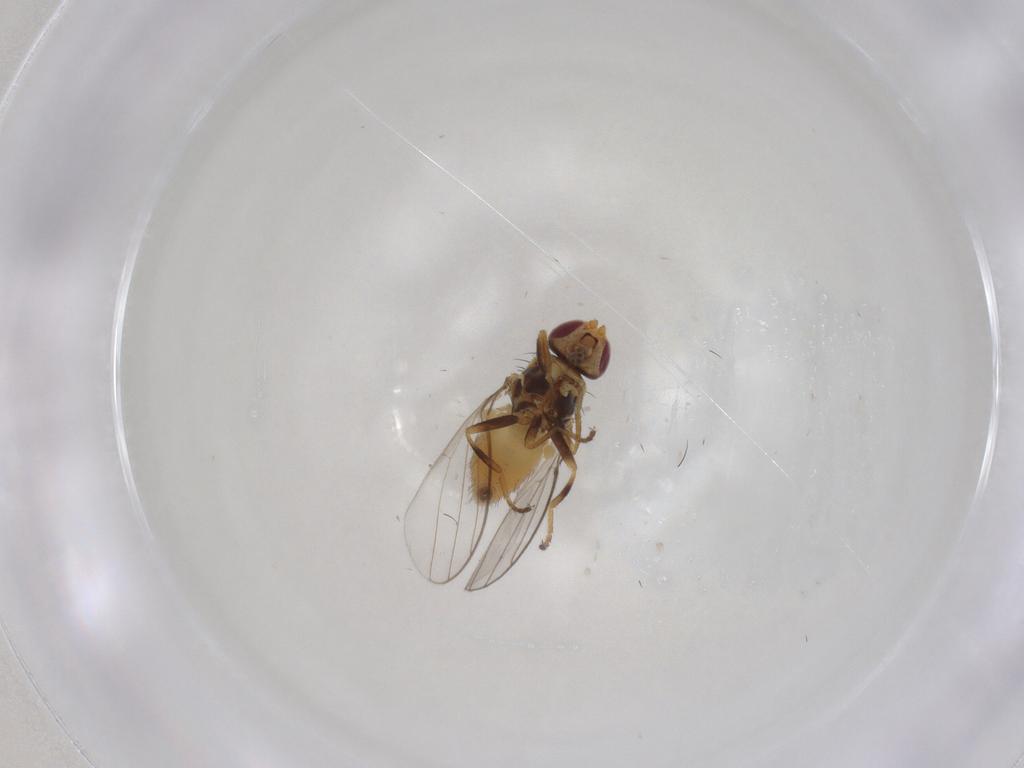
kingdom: Animalia
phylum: Arthropoda
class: Insecta
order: Diptera
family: Chloropidae
